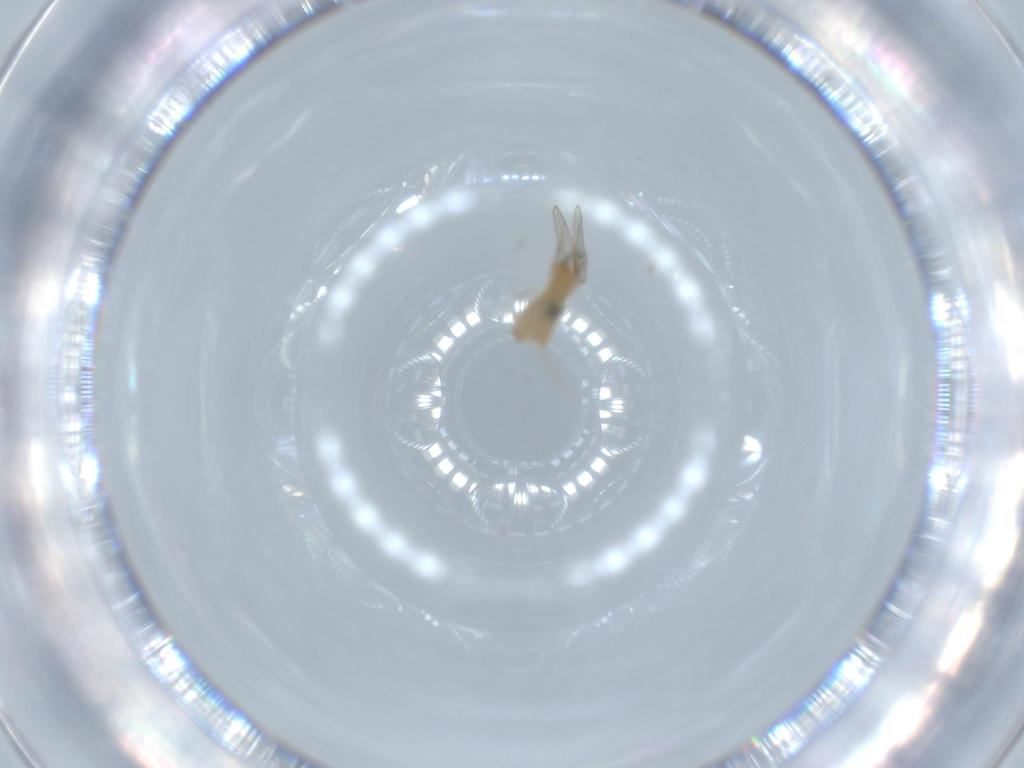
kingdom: Animalia
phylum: Arthropoda
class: Insecta
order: Diptera
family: Cecidomyiidae
